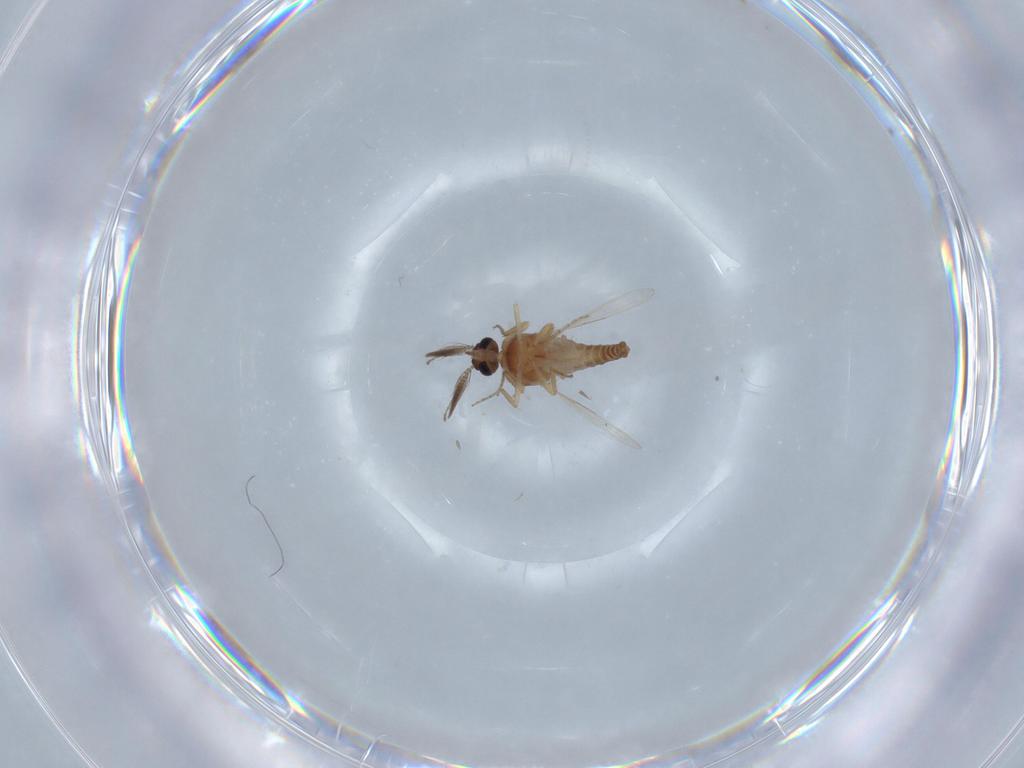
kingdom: Animalia
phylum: Arthropoda
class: Insecta
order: Diptera
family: Ceratopogonidae
